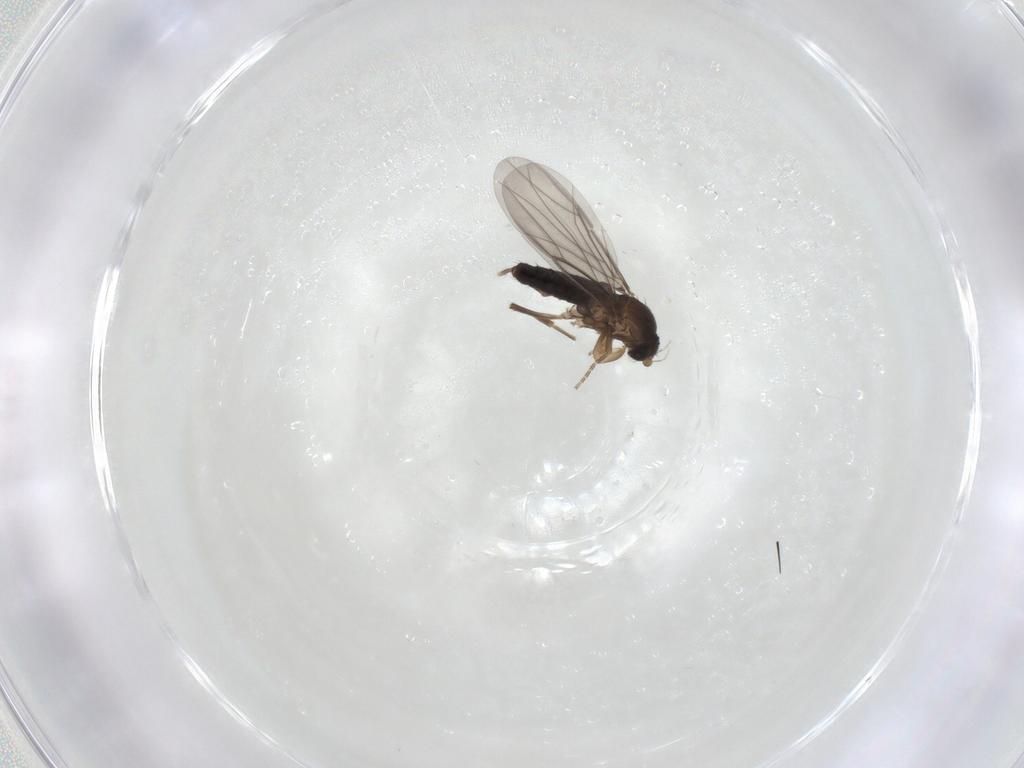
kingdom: Animalia
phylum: Arthropoda
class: Insecta
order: Diptera
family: Phoridae
